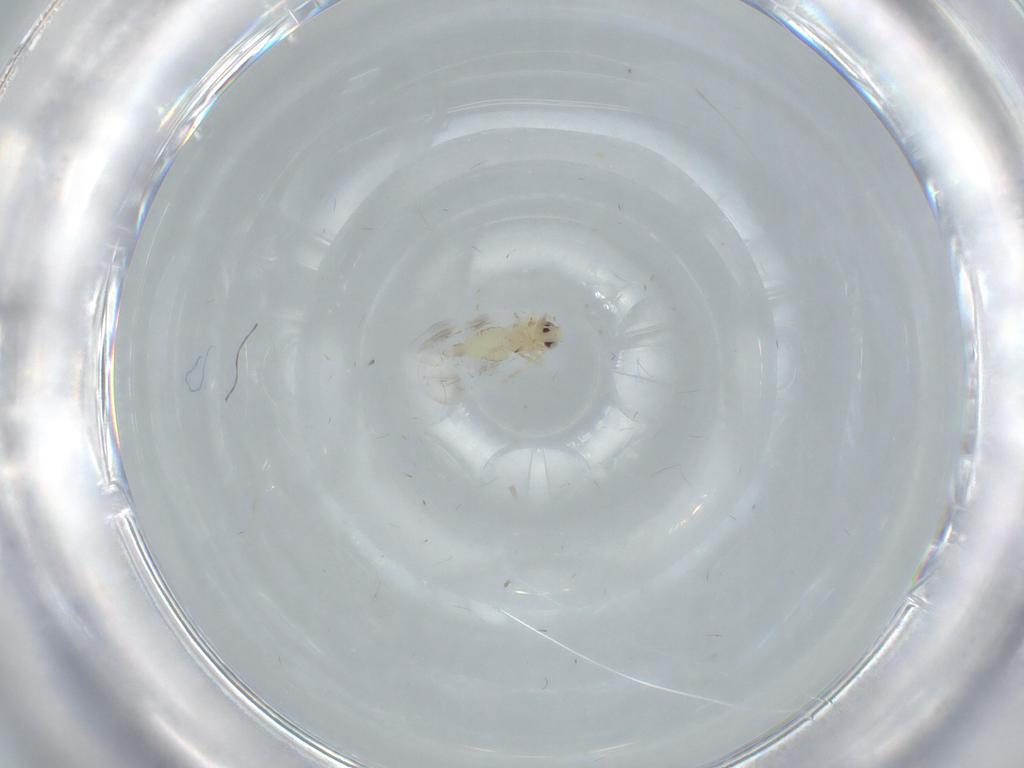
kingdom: Animalia
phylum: Arthropoda
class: Insecta
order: Hemiptera
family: Aleyrodidae
